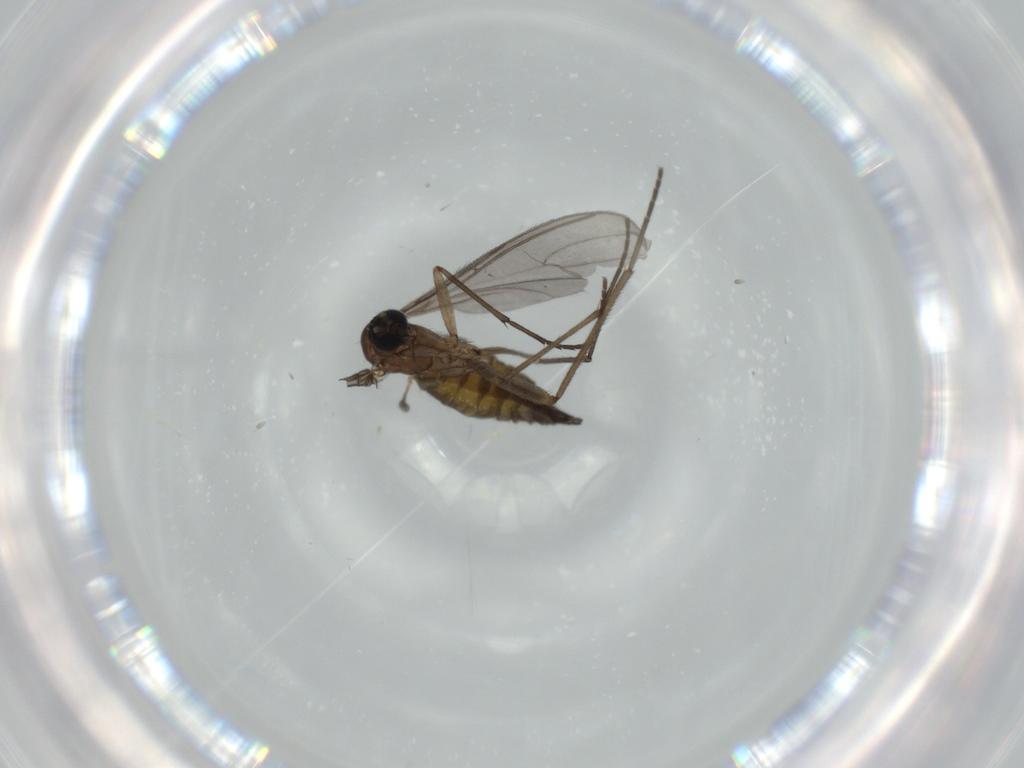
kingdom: Animalia
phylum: Arthropoda
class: Insecta
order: Diptera
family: Sciaridae
